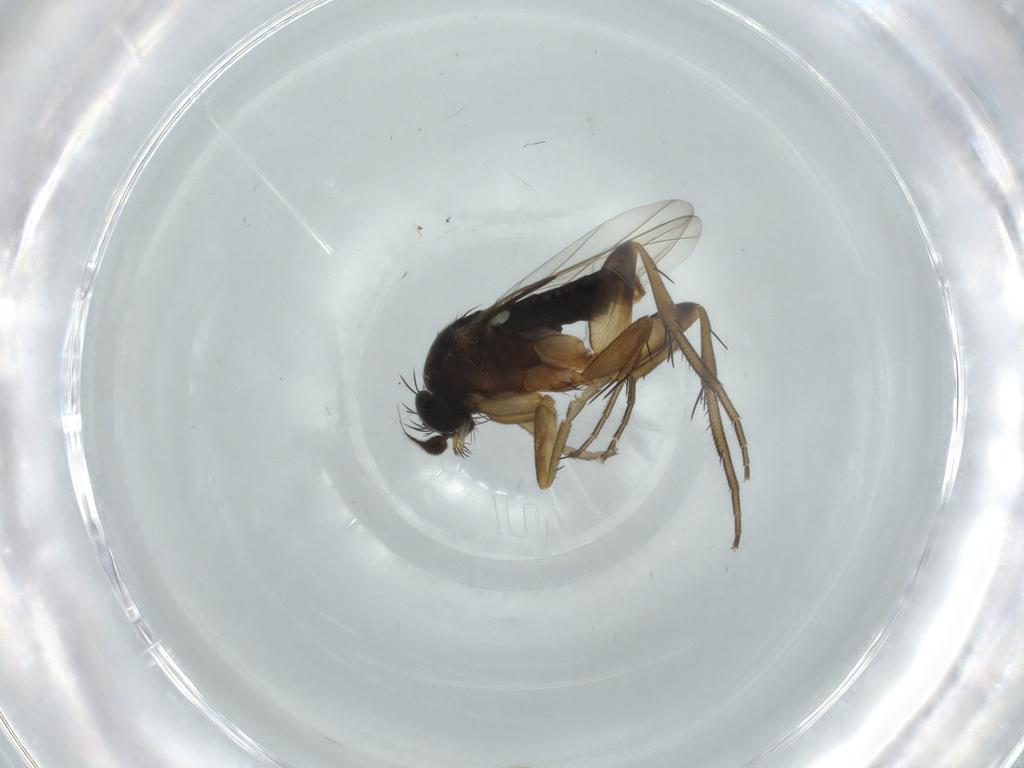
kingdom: Animalia
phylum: Arthropoda
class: Insecta
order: Diptera
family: Phoridae
